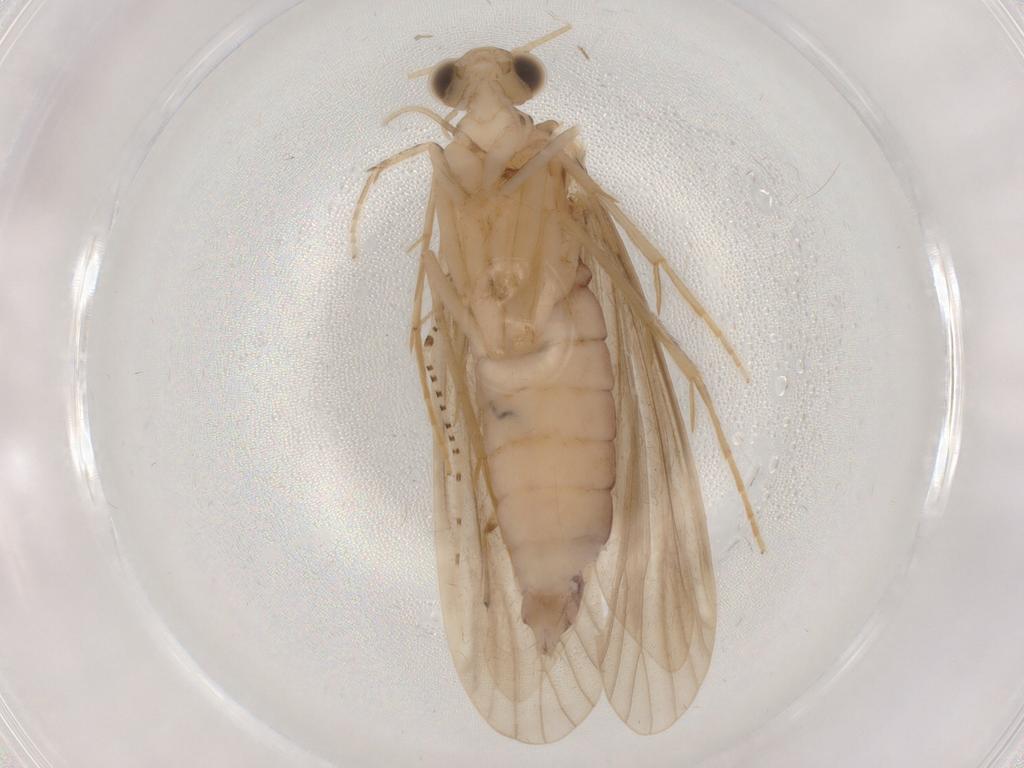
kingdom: Animalia
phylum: Arthropoda
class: Insecta
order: Trichoptera
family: Ecnomidae
